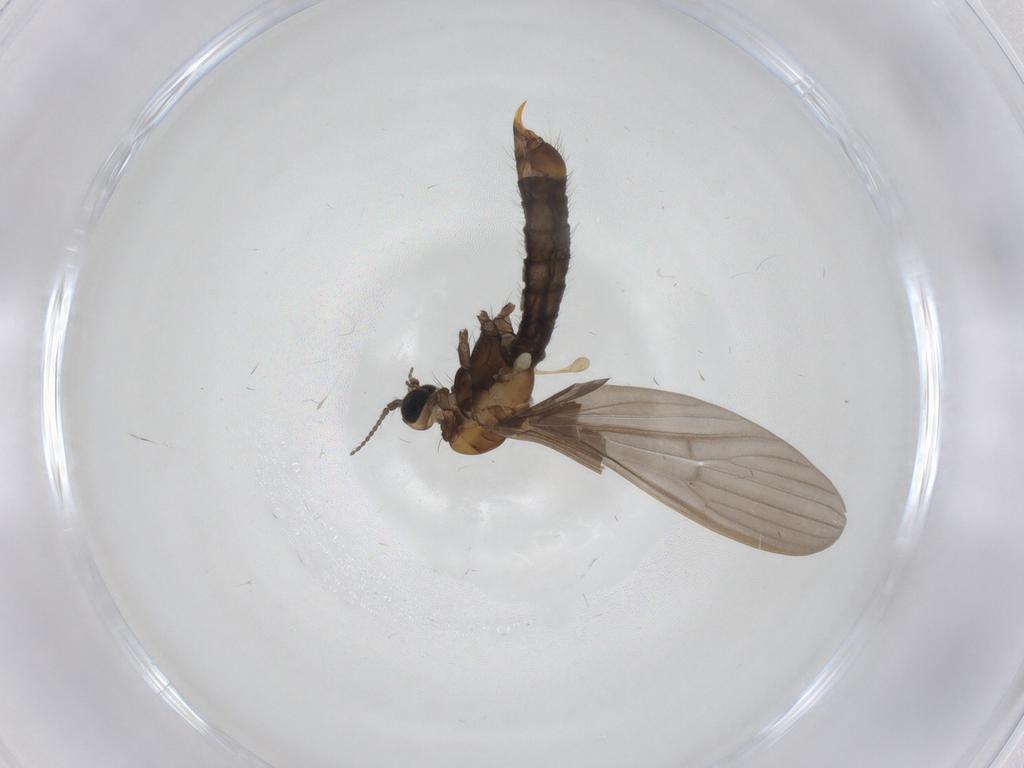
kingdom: Animalia
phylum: Arthropoda
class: Insecta
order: Diptera
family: Limoniidae
